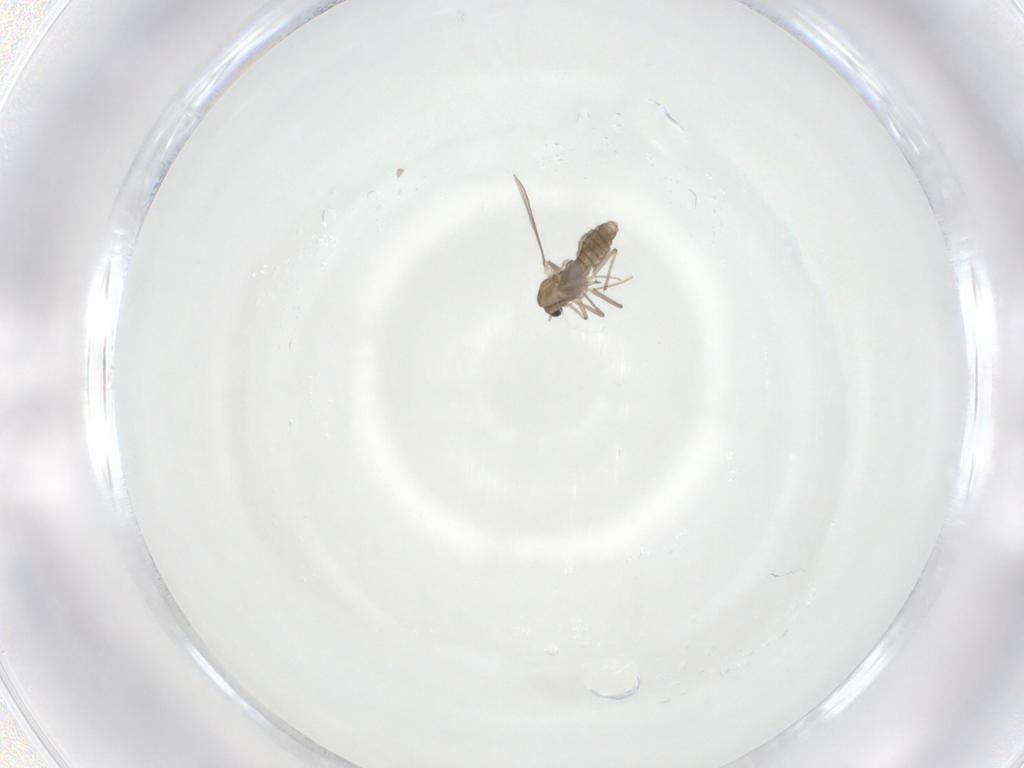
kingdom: Animalia
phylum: Arthropoda
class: Insecta
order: Diptera
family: Chironomidae
